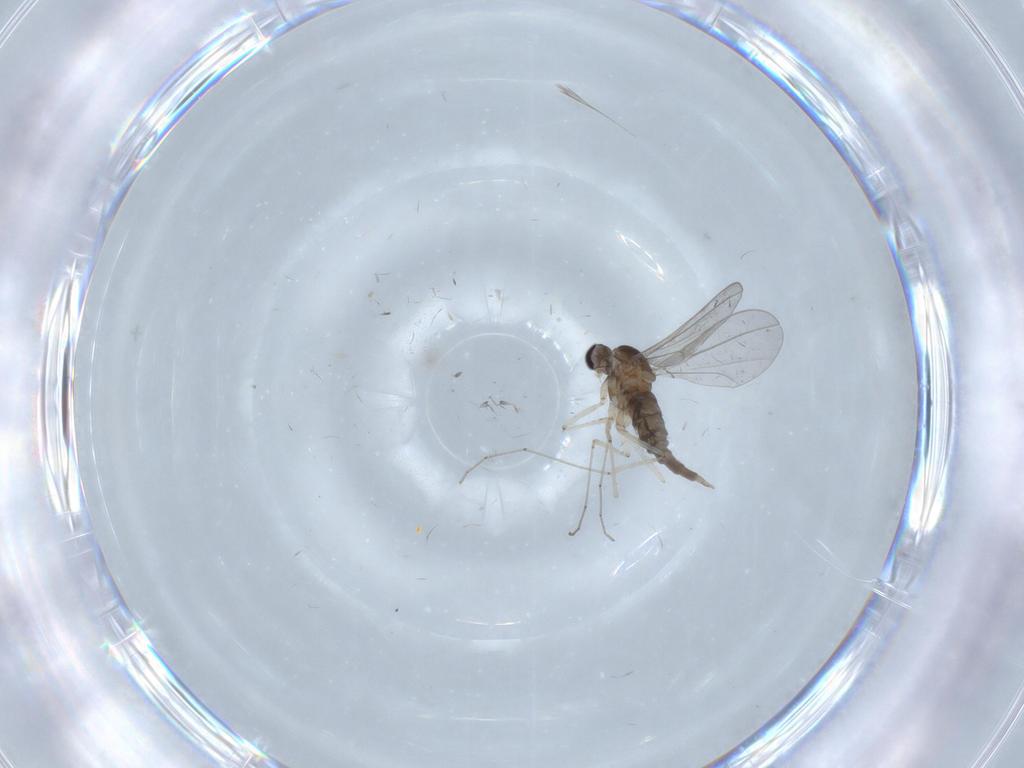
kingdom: Animalia
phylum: Arthropoda
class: Insecta
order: Diptera
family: Cecidomyiidae
